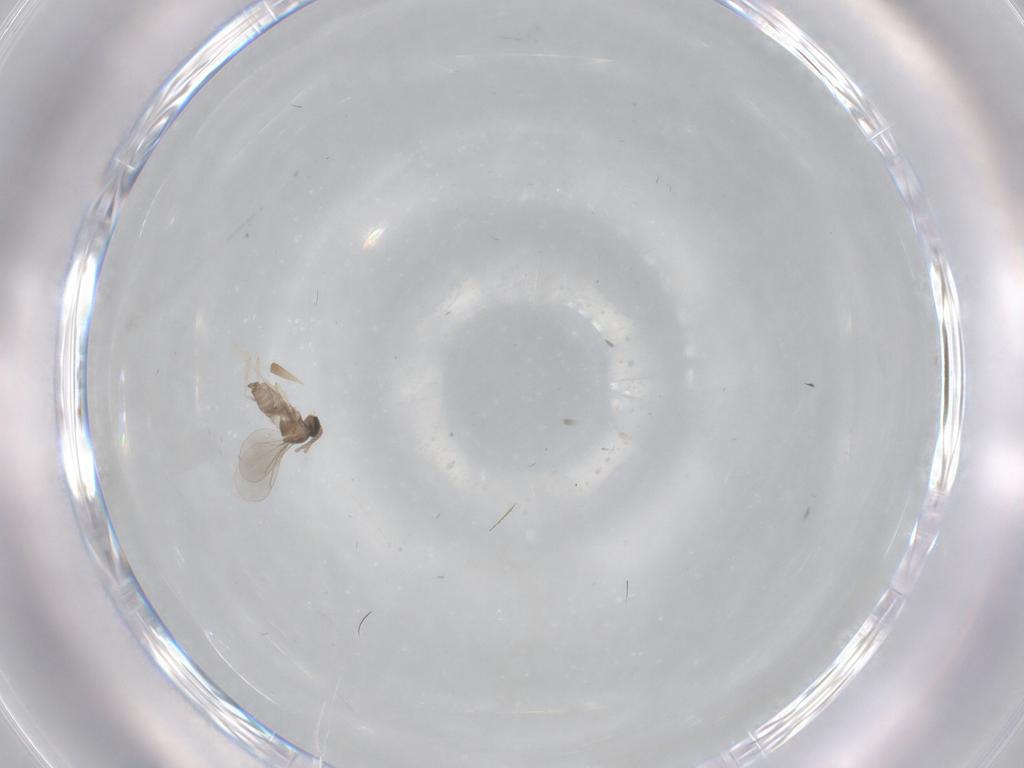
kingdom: Animalia
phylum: Arthropoda
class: Insecta
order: Diptera
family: Cecidomyiidae
